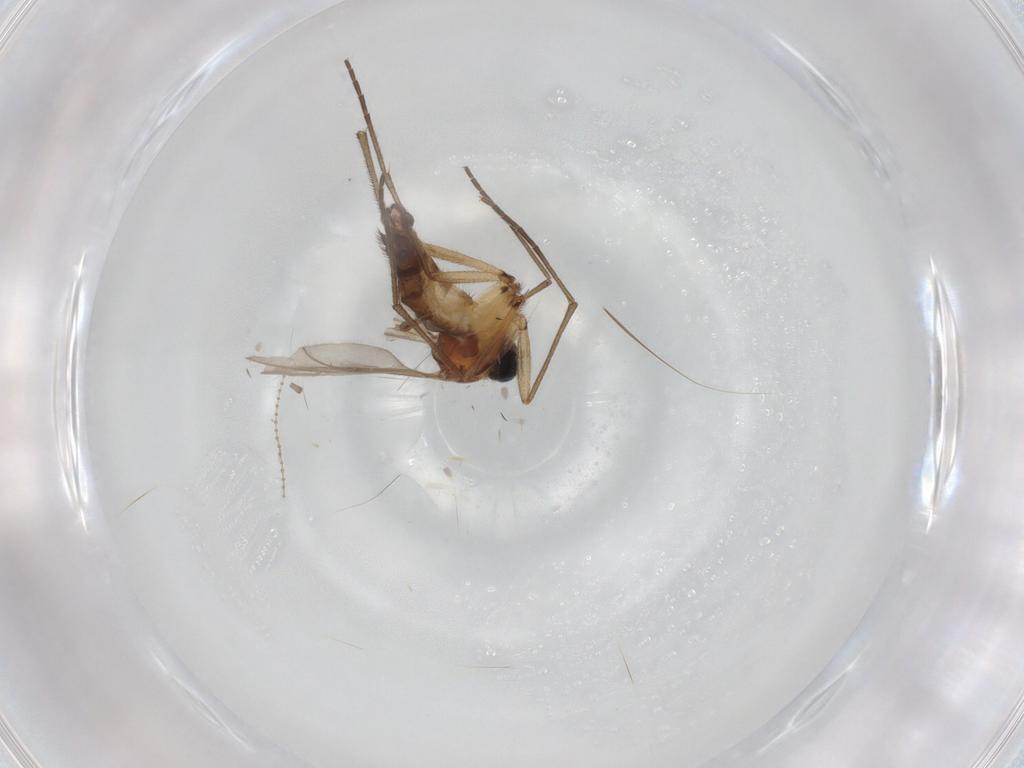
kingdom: Animalia
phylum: Arthropoda
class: Insecta
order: Diptera
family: Sciaridae
